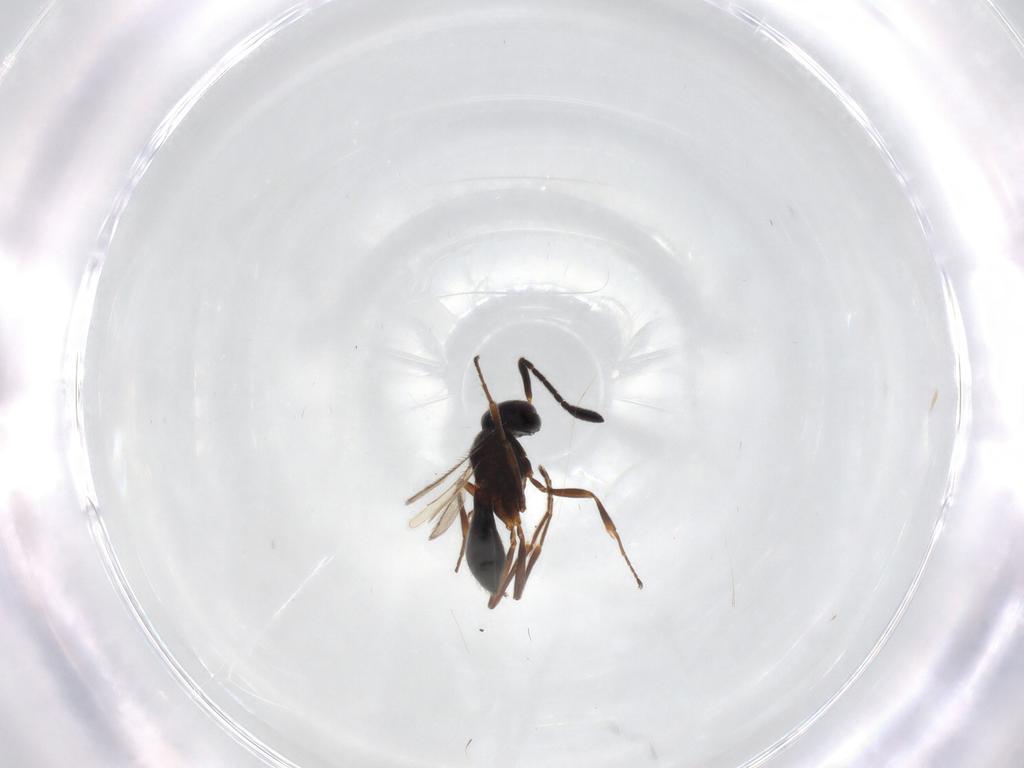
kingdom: Animalia
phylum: Arthropoda
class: Insecta
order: Hymenoptera
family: Scelionidae
